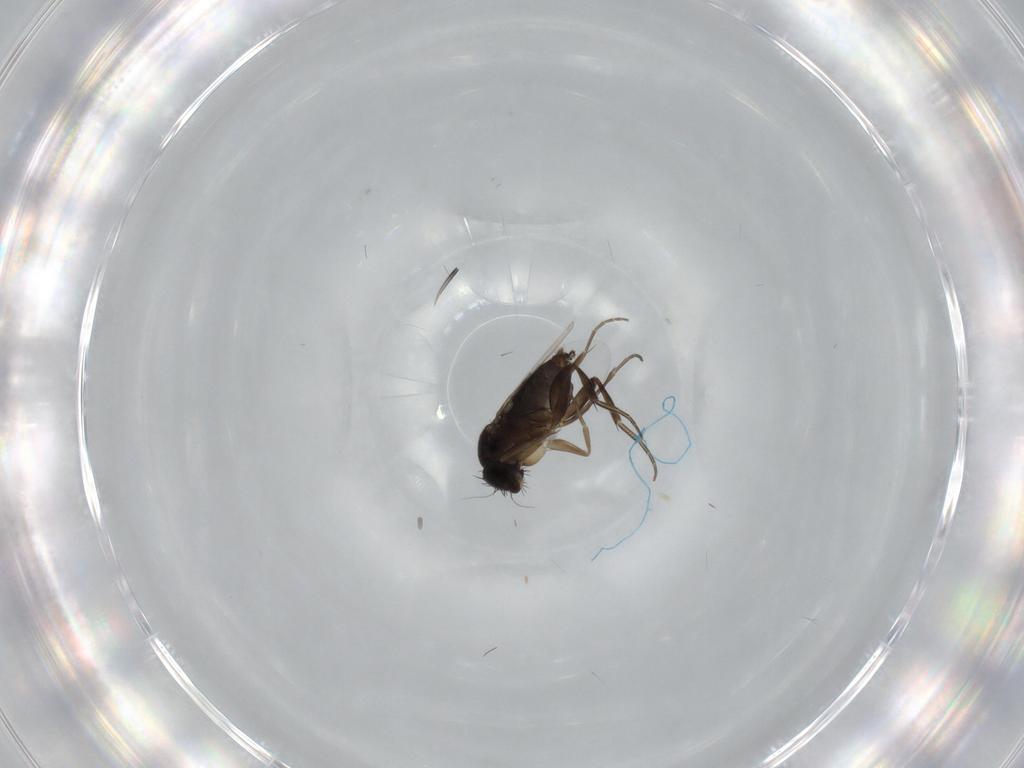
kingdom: Animalia
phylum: Arthropoda
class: Insecta
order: Diptera
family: Phoridae
